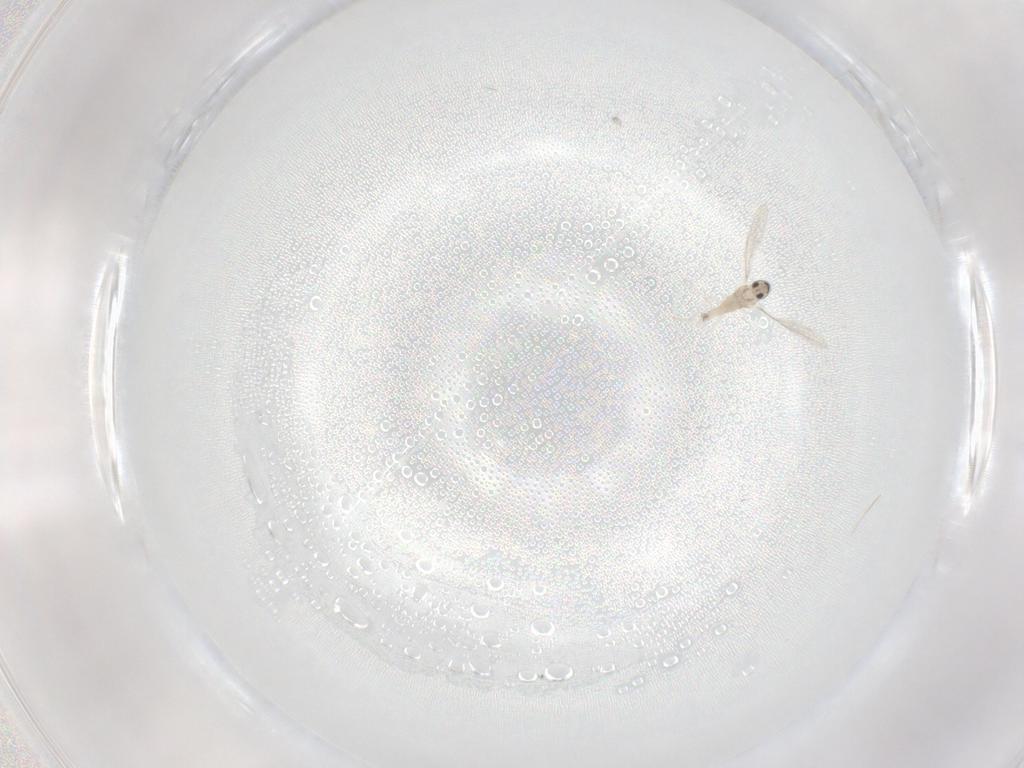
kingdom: Animalia
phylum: Arthropoda
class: Insecta
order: Diptera
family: Cecidomyiidae
